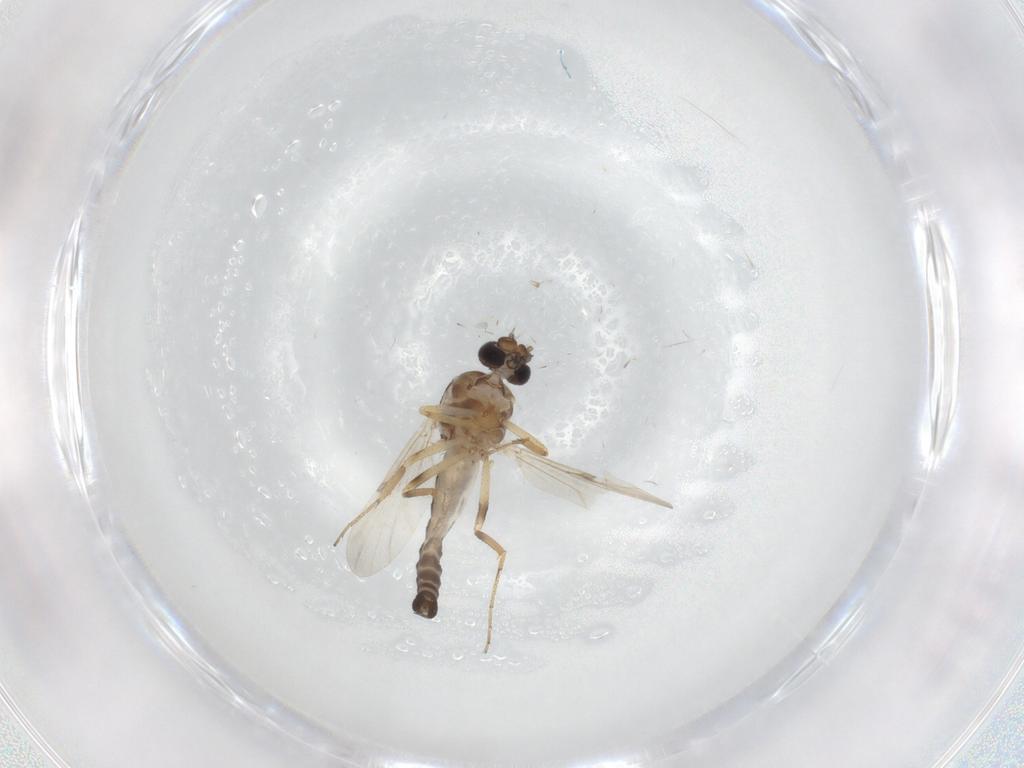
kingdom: Animalia
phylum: Arthropoda
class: Insecta
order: Diptera
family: Ceratopogonidae
